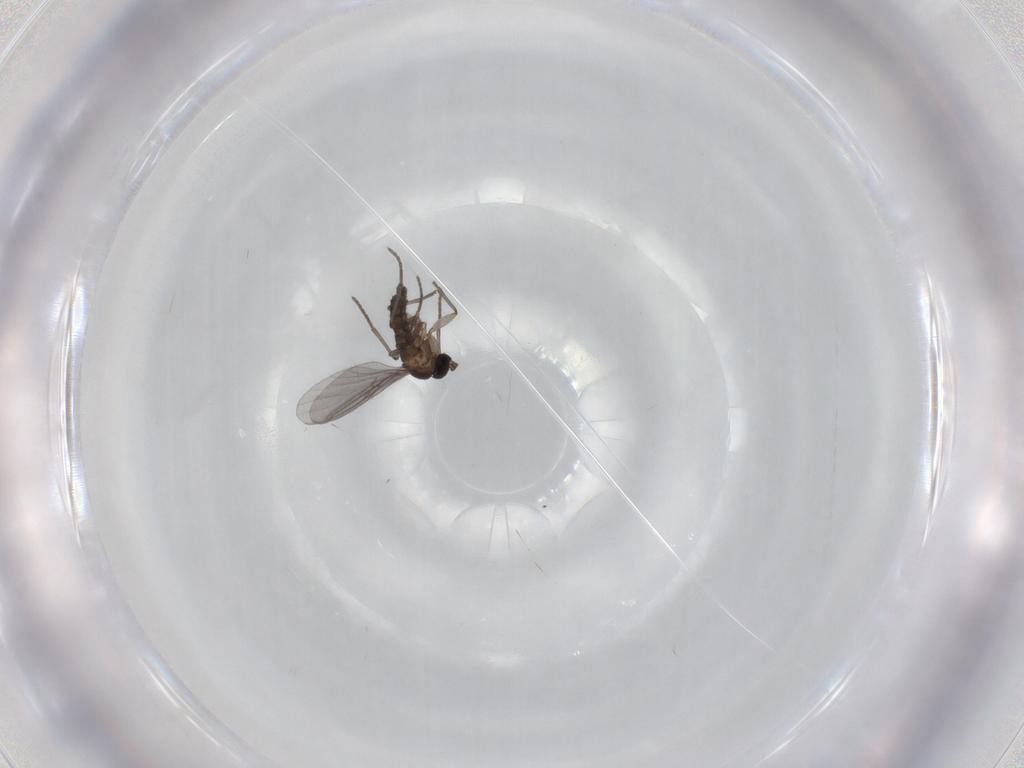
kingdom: Animalia
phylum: Arthropoda
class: Insecta
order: Diptera
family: Sciaridae
